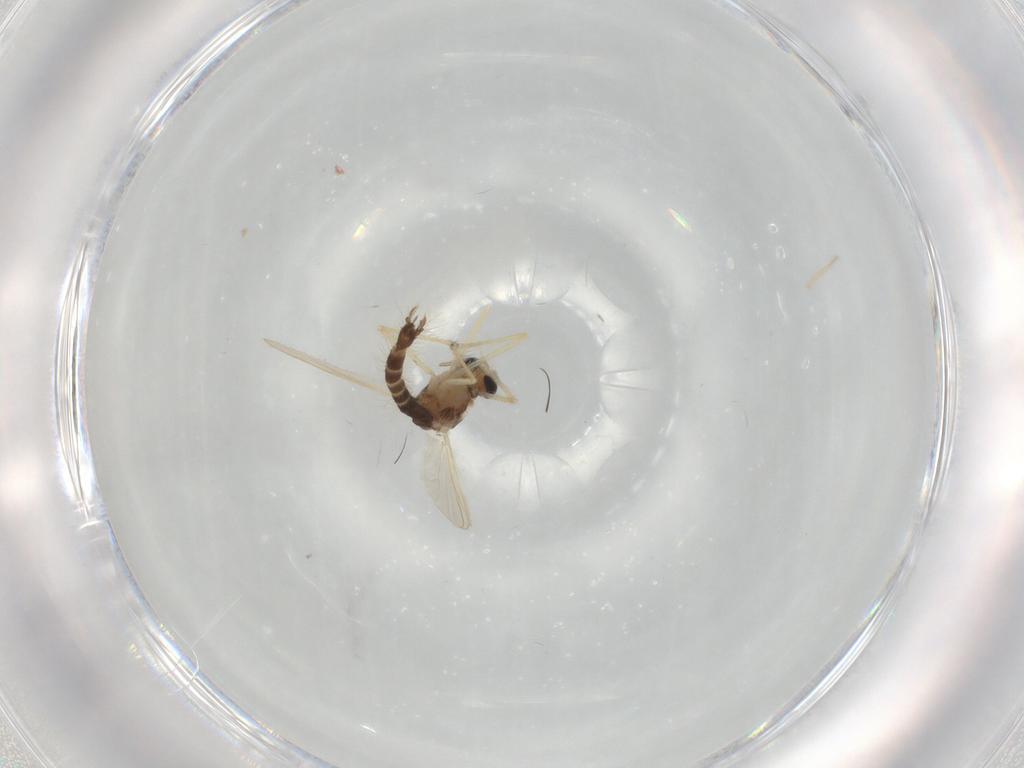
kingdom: Animalia
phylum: Arthropoda
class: Insecta
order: Diptera
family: Chironomidae
